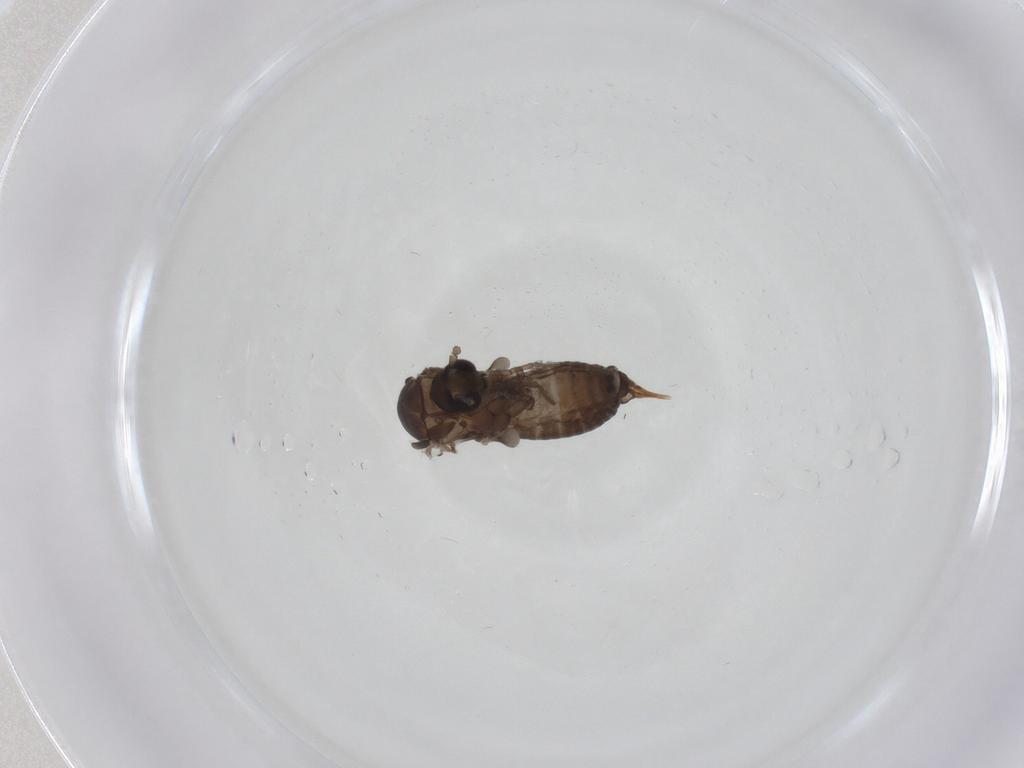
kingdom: Animalia
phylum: Arthropoda
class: Insecta
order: Diptera
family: Psychodidae
